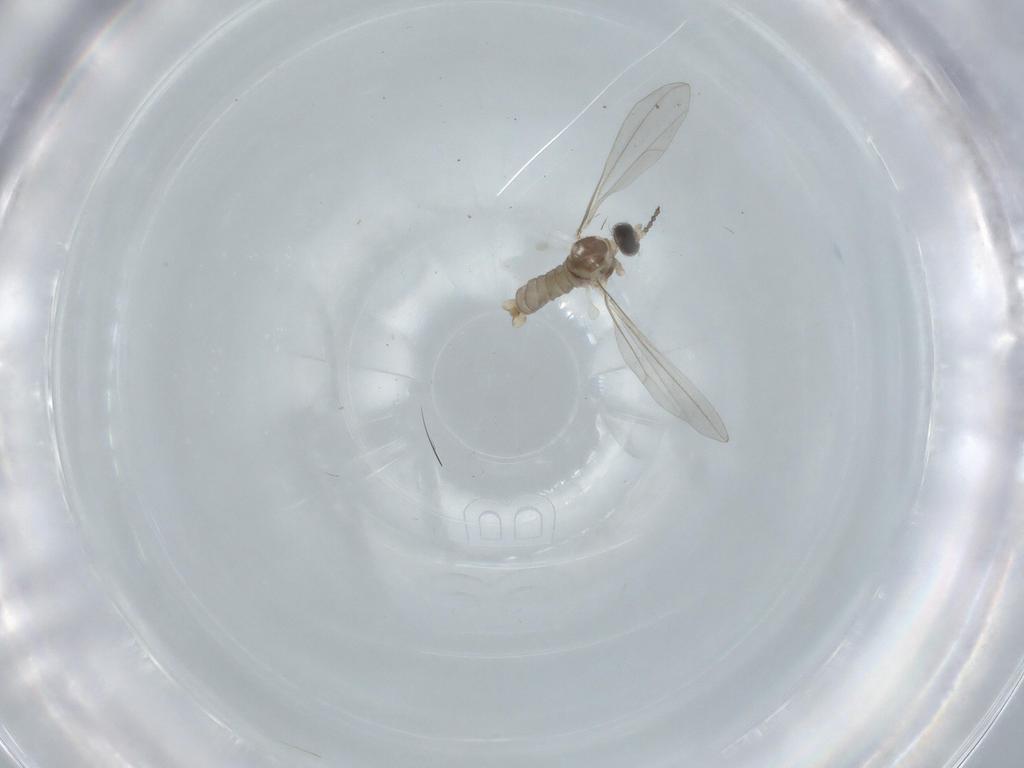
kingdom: Animalia
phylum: Arthropoda
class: Insecta
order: Diptera
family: Cecidomyiidae
